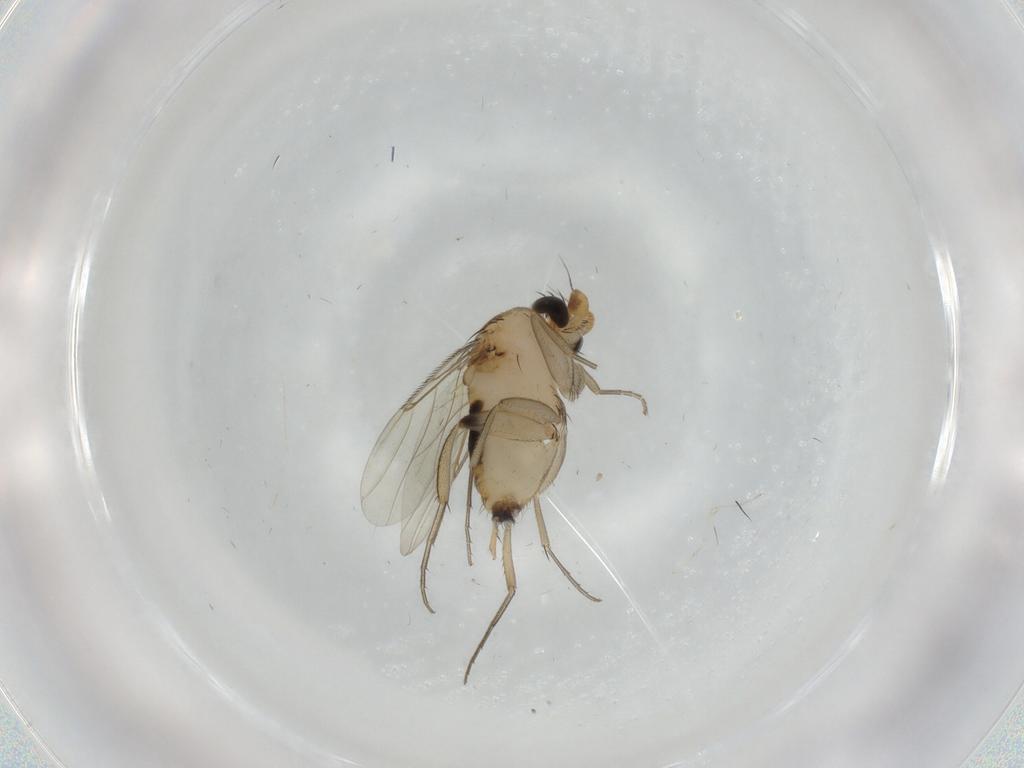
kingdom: Animalia
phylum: Arthropoda
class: Insecta
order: Diptera
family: Phoridae
